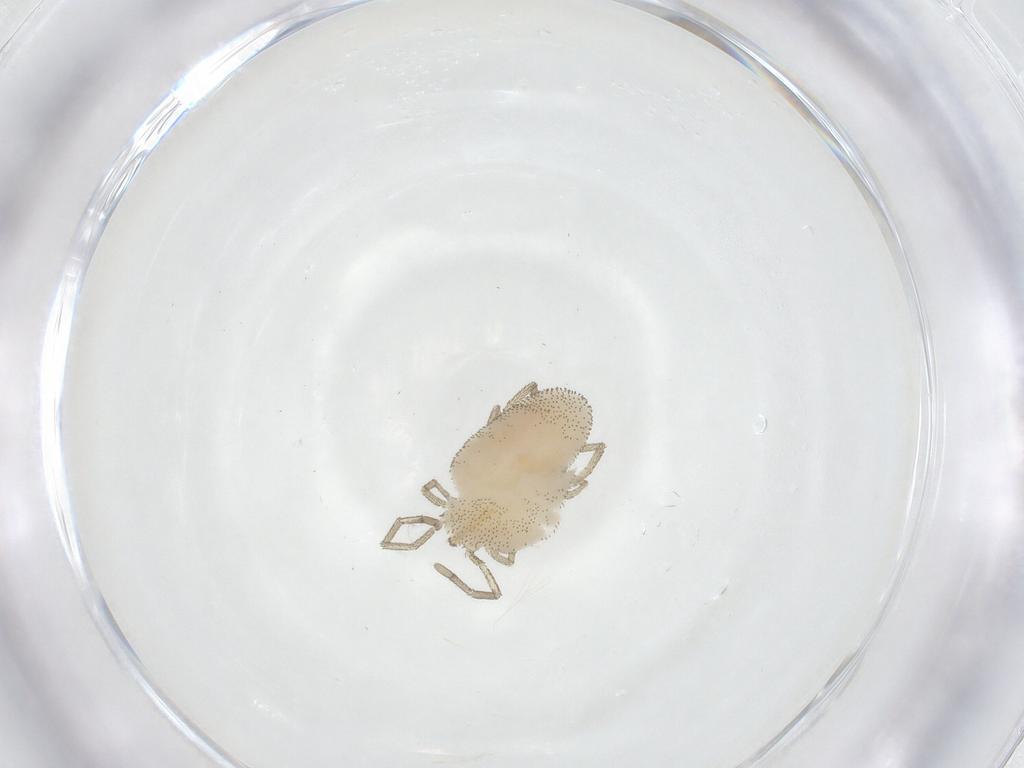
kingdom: Animalia
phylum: Arthropoda
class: Arachnida
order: Trombidiformes
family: Smarididae
